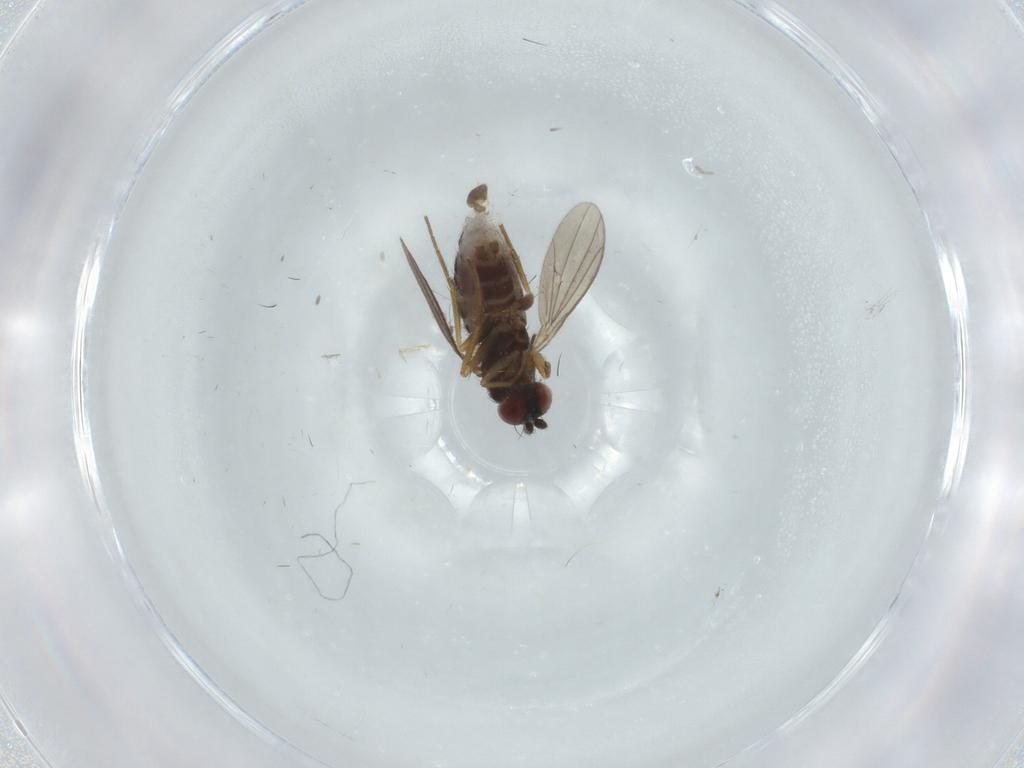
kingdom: Animalia
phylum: Arthropoda
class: Insecta
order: Diptera
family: Dolichopodidae
